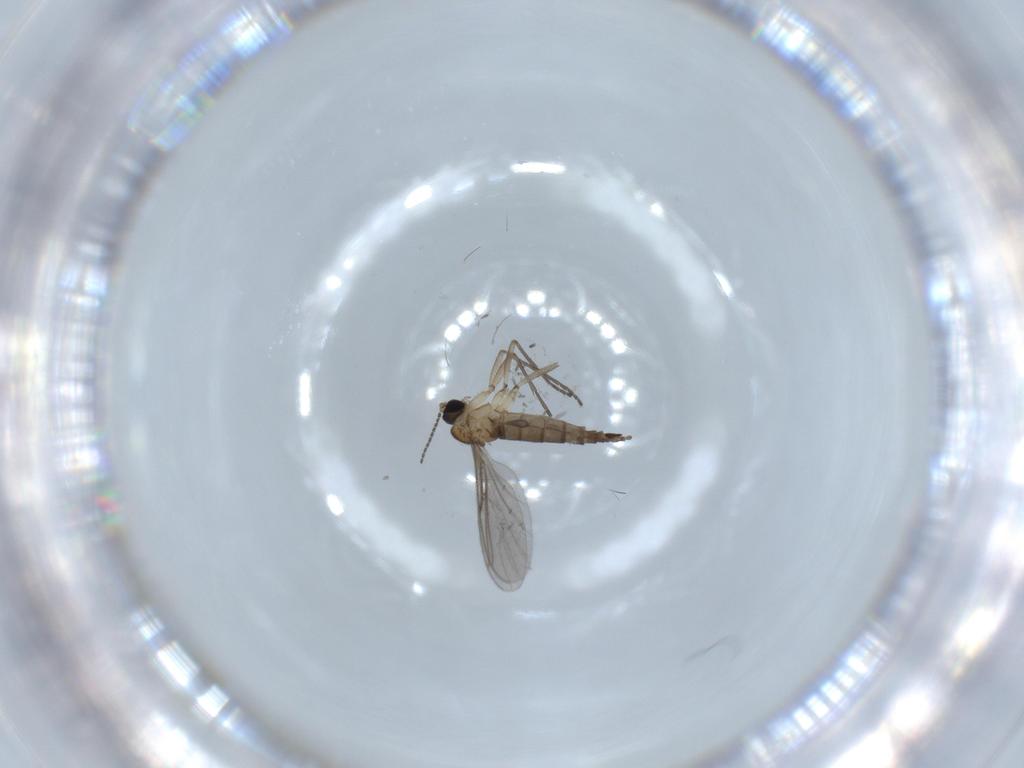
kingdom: Animalia
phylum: Arthropoda
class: Insecta
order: Diptera
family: Sciaridae
